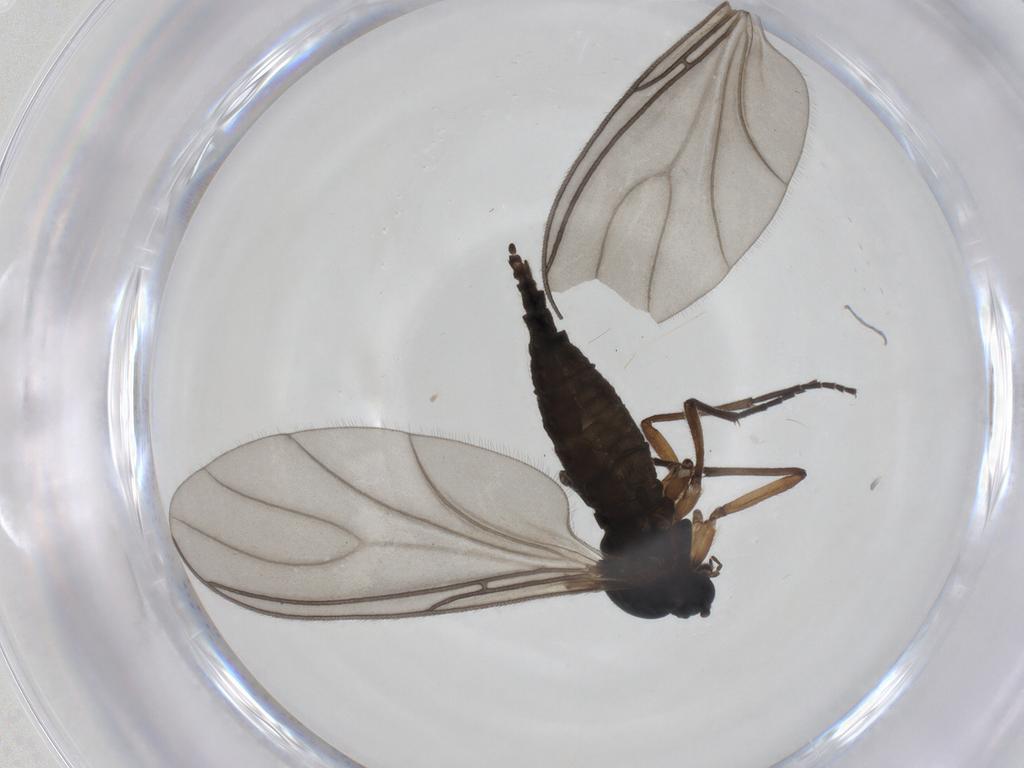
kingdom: Animalia
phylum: Arthropoda
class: Insecta
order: Diptera
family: Sciaridae
